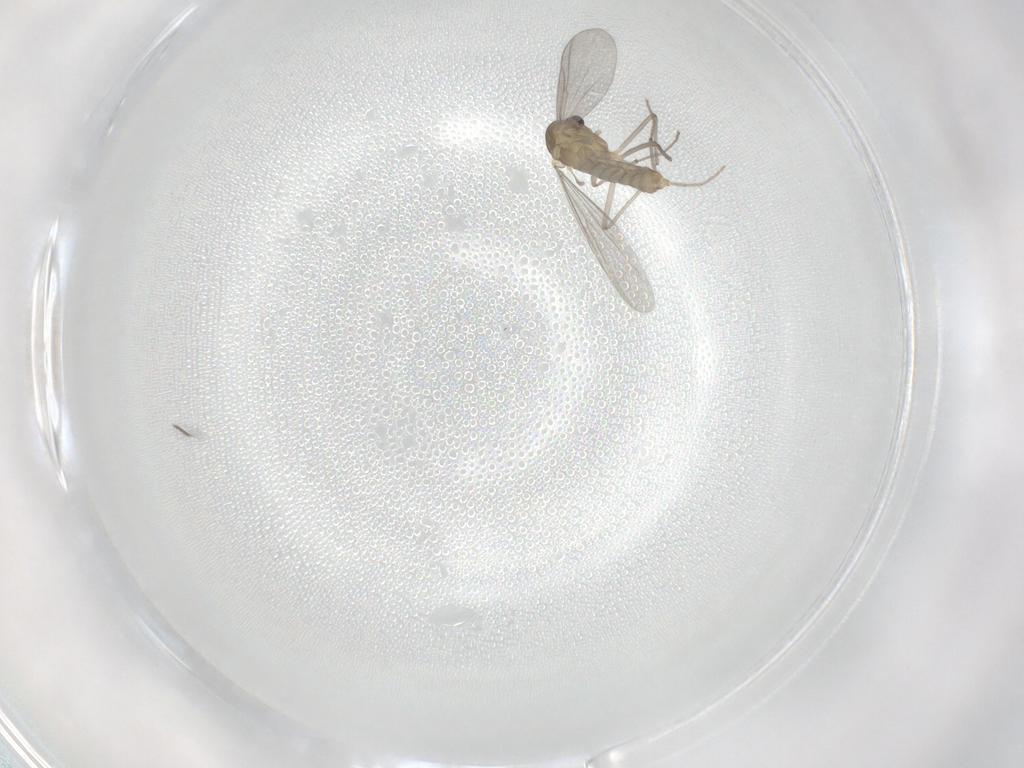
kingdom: Animalia
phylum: Arthropoda
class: Insecta
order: Diptera
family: Chironomidae
